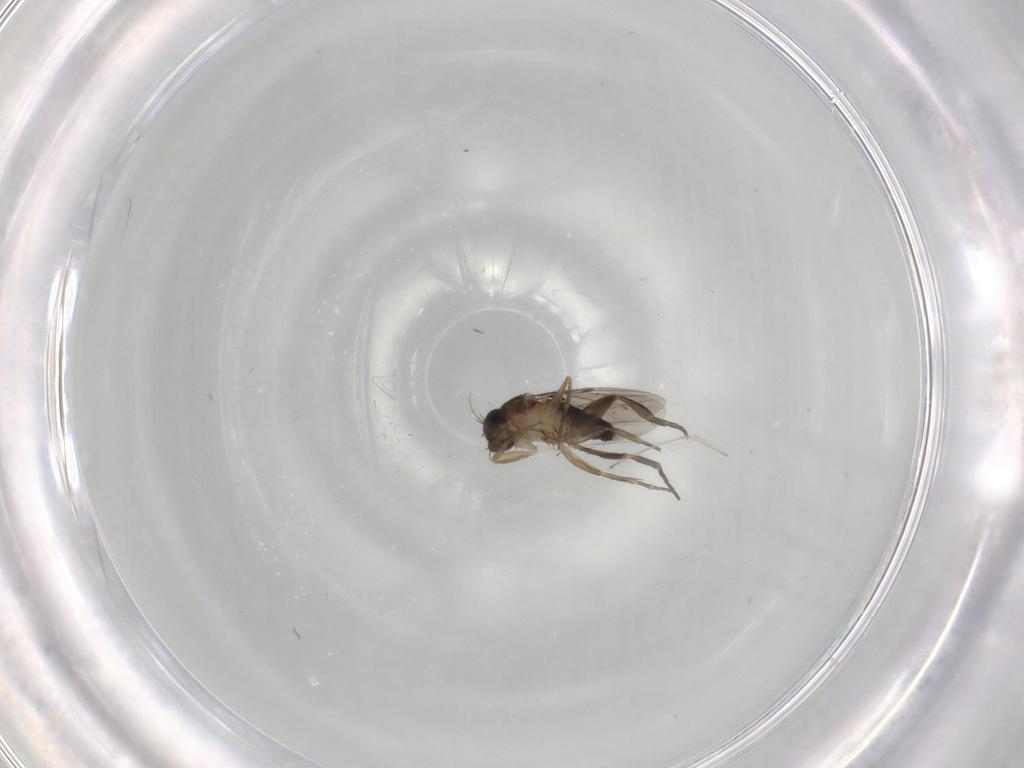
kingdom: Animalia
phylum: Arthropoda
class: Insecta
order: Diptera
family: Phoridae
